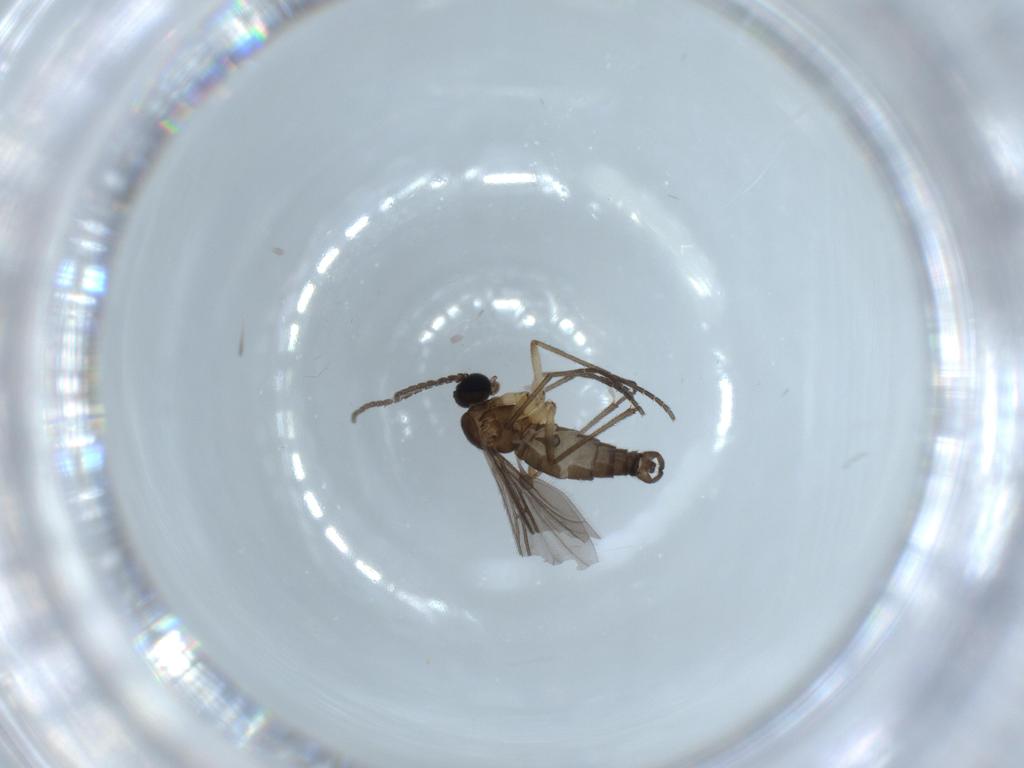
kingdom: Animalia
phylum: Arthropoda
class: Insecta
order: Diptera
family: Sciaridae
